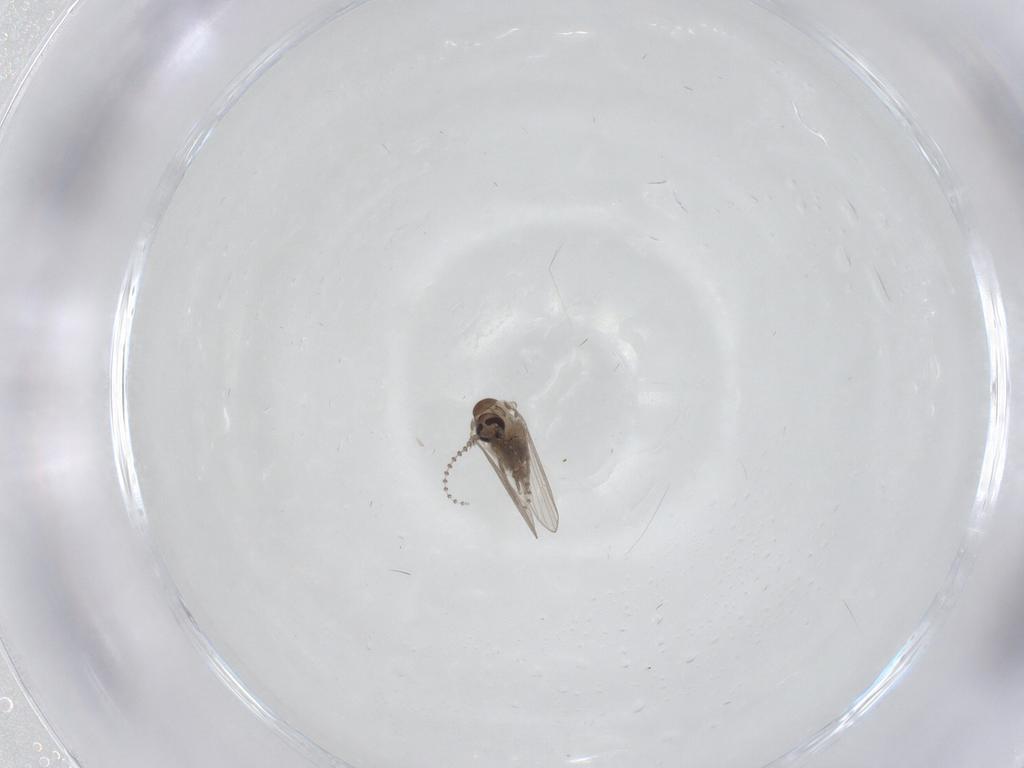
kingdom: Animalia
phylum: Arthropoda
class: Insecta
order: Diptera
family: Psychodidae
